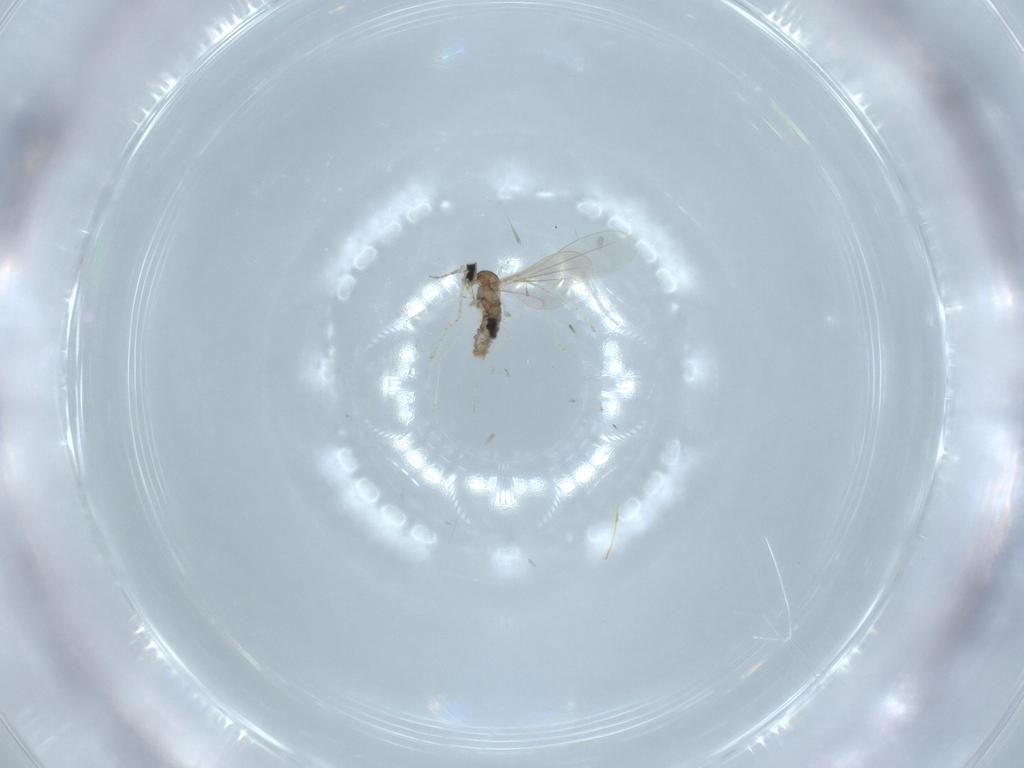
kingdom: Animalia
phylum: Arthropoda
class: Insecta
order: Diptera
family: Cecidomyiidae
